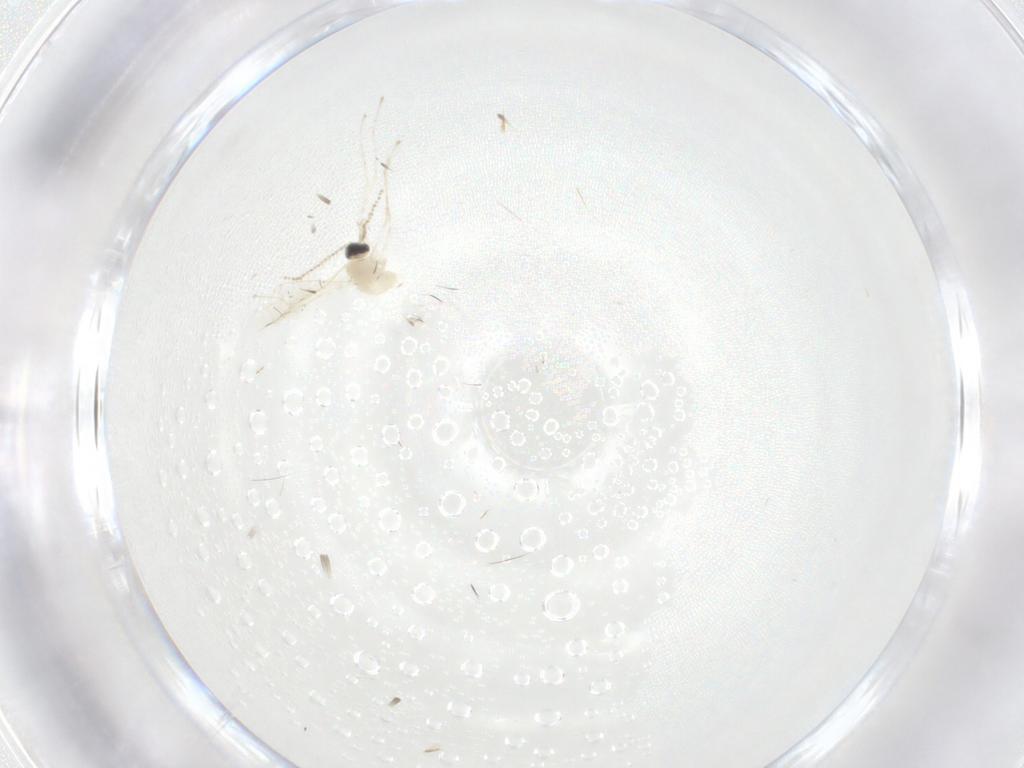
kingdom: Animalia
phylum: Arthropoda
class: Insecta
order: Diptera
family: Cecidomyiidae
